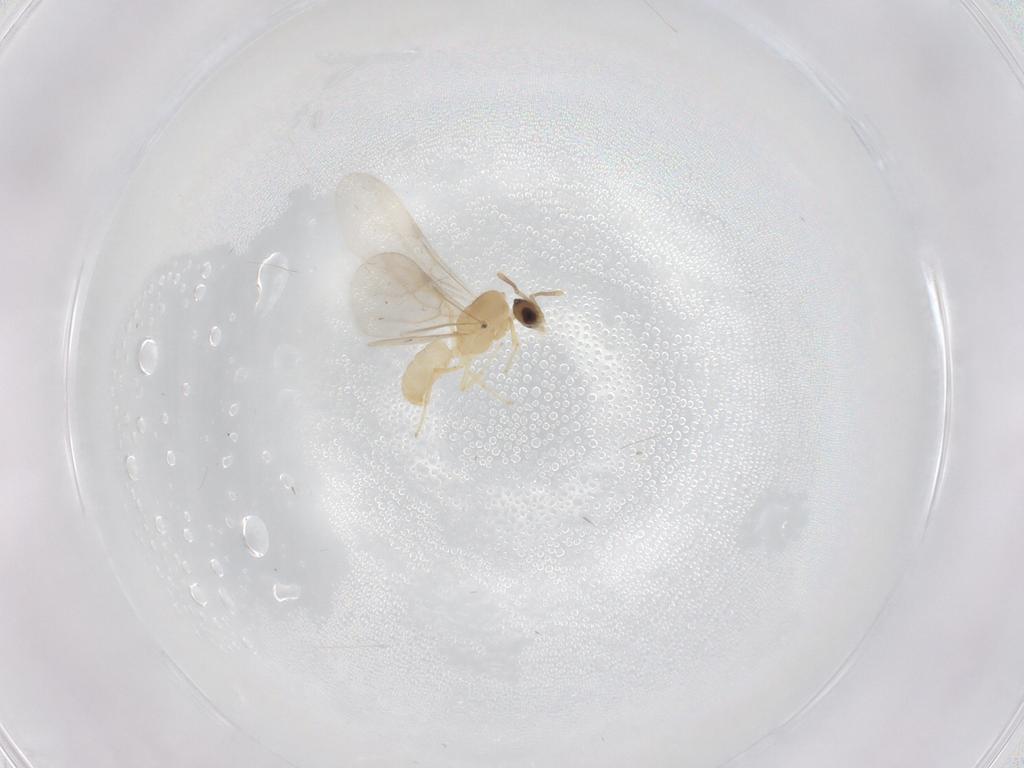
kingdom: Animalia
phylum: Arthropoda
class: Insecta
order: Hymenoptera
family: Formicidae
